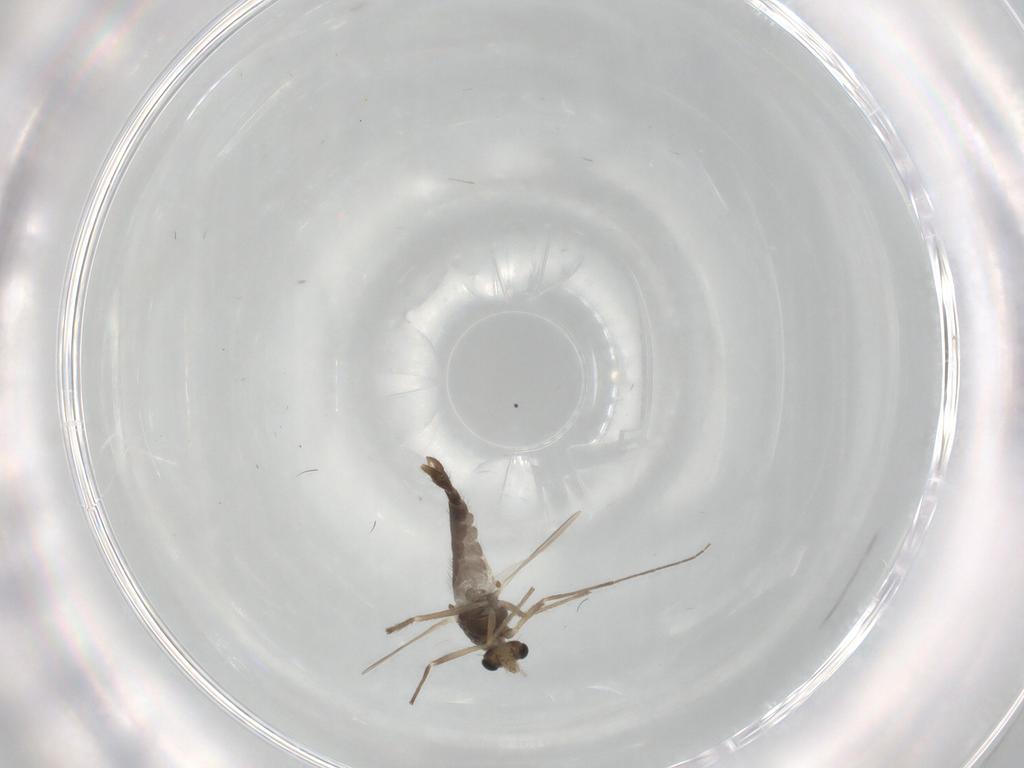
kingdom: Animalia
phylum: Arthropoda
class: Insecta
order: Diptera
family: Chironomidae
